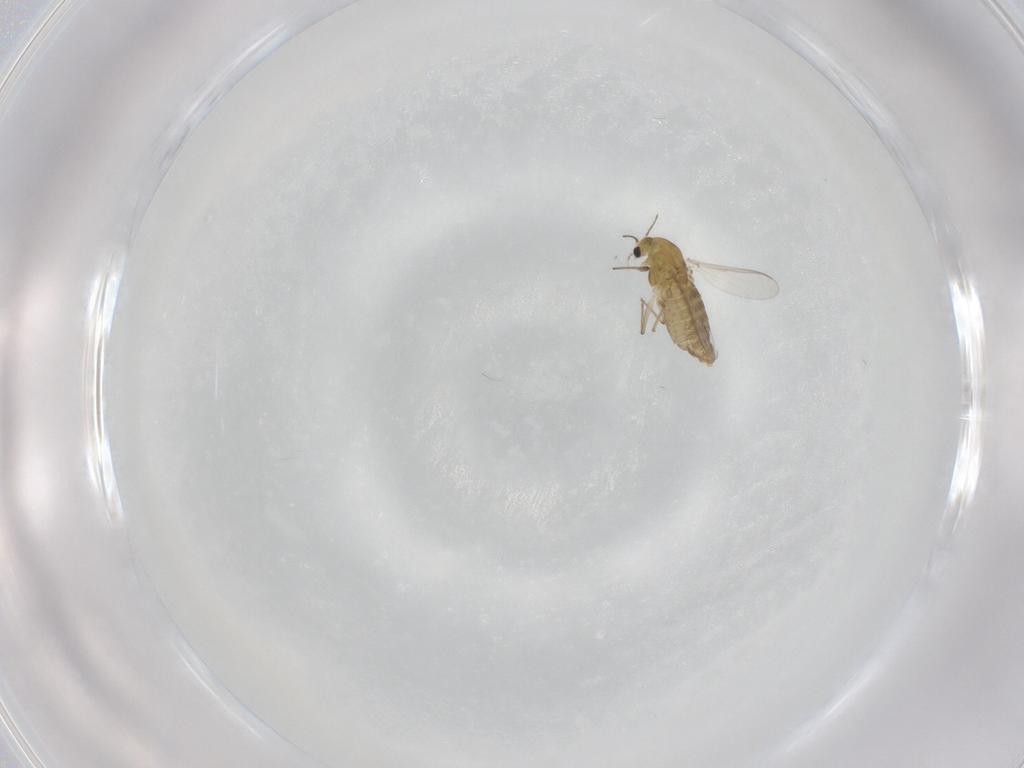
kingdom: Animalia
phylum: Arthropoda
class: Insecta
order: Diptera
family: Chironomidae
